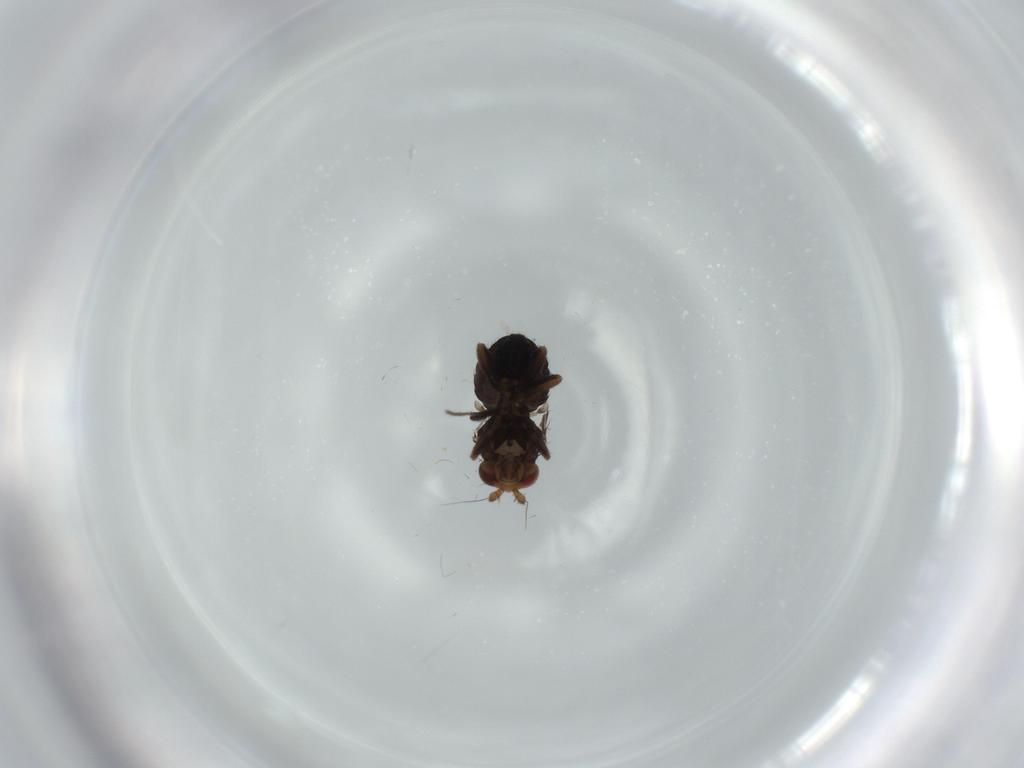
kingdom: Animalia
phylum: Arthropoda
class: Insecta
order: Diptera
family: Sphaeroceridae
